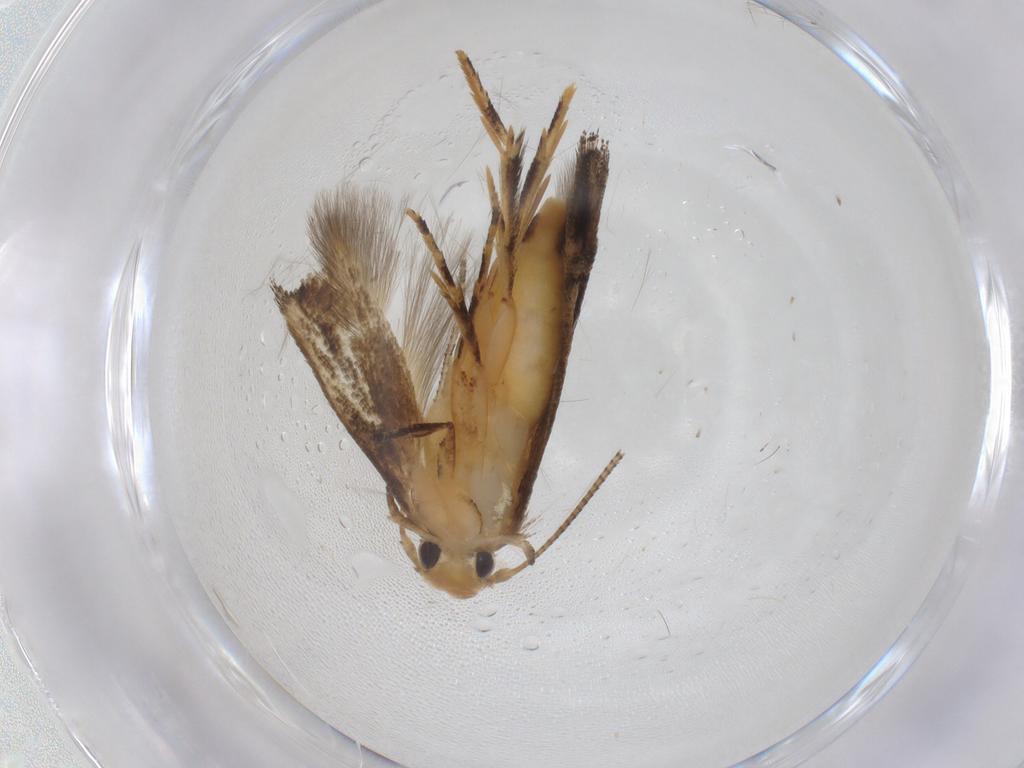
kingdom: Animalia
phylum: Arthropoda
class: Insecta
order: Lepidoptera
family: Momphidae
